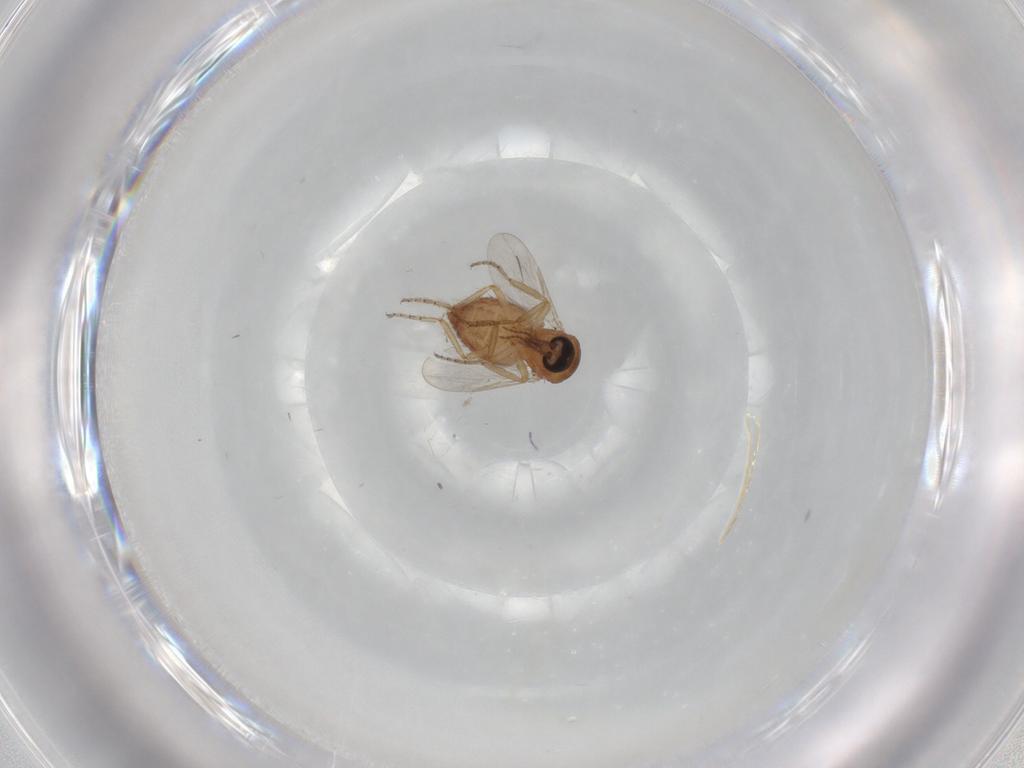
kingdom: Animalia
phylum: Arthropoda
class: Insecta
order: Diptera
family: Ceratopogonidae
